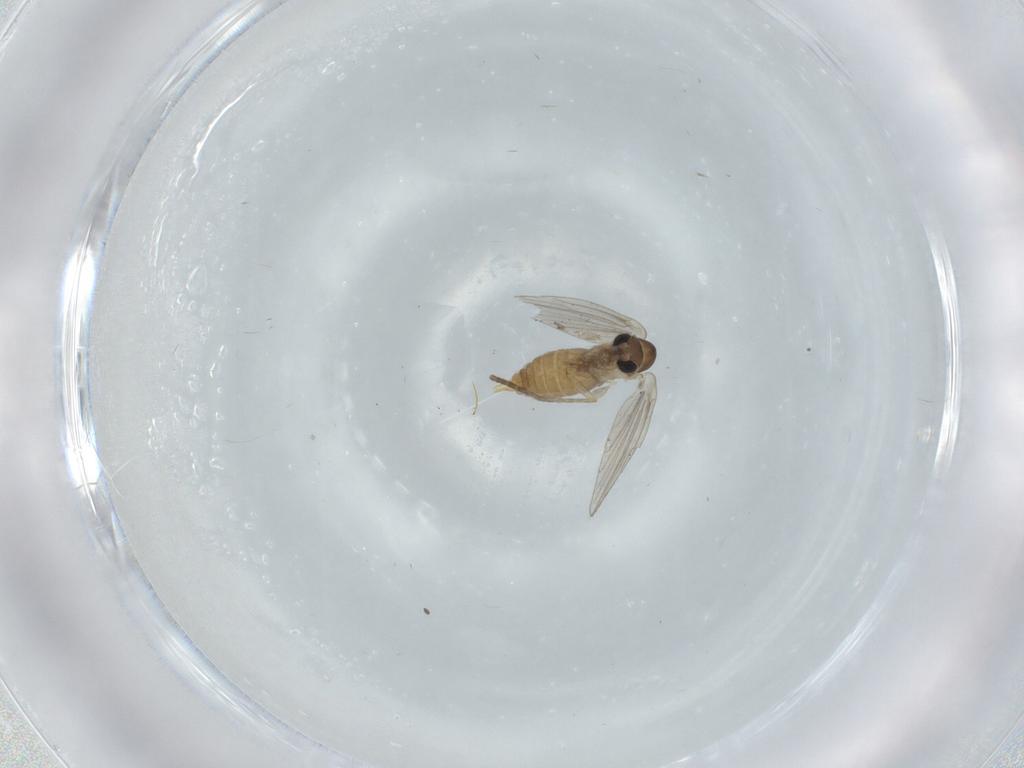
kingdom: Animalia
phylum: Arthropoda
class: Insecta
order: Diptera
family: Cecidomyiidae
